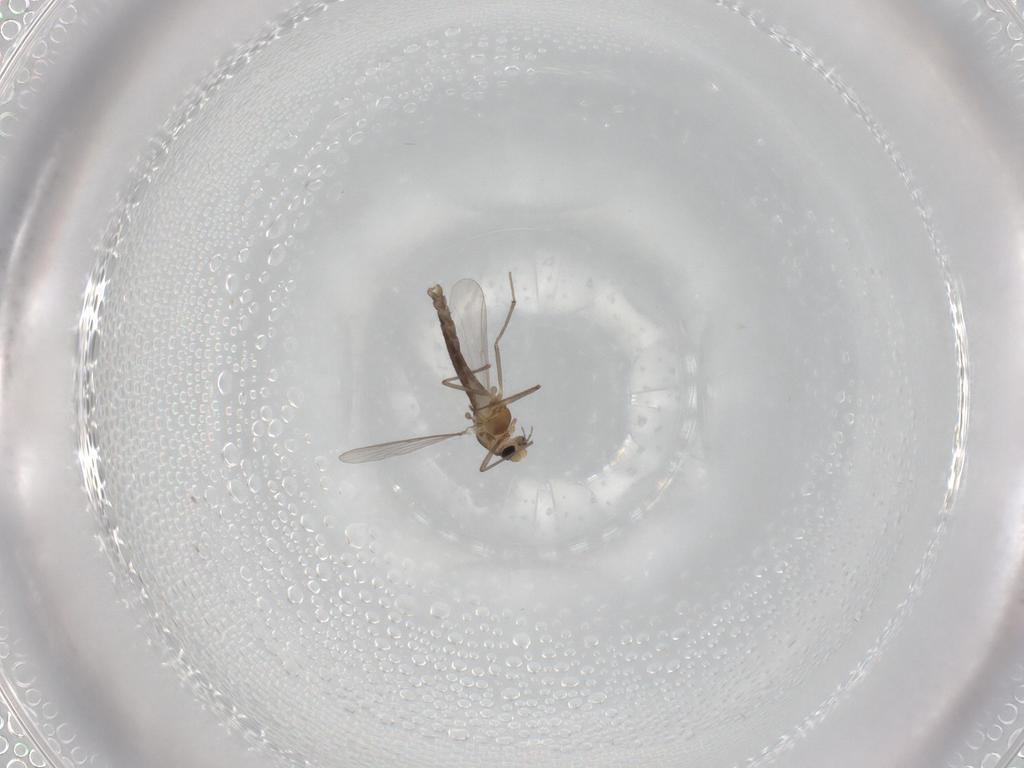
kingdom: Animalia
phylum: Arthropoda
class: Insecta
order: Diptera
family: Chironomidae
